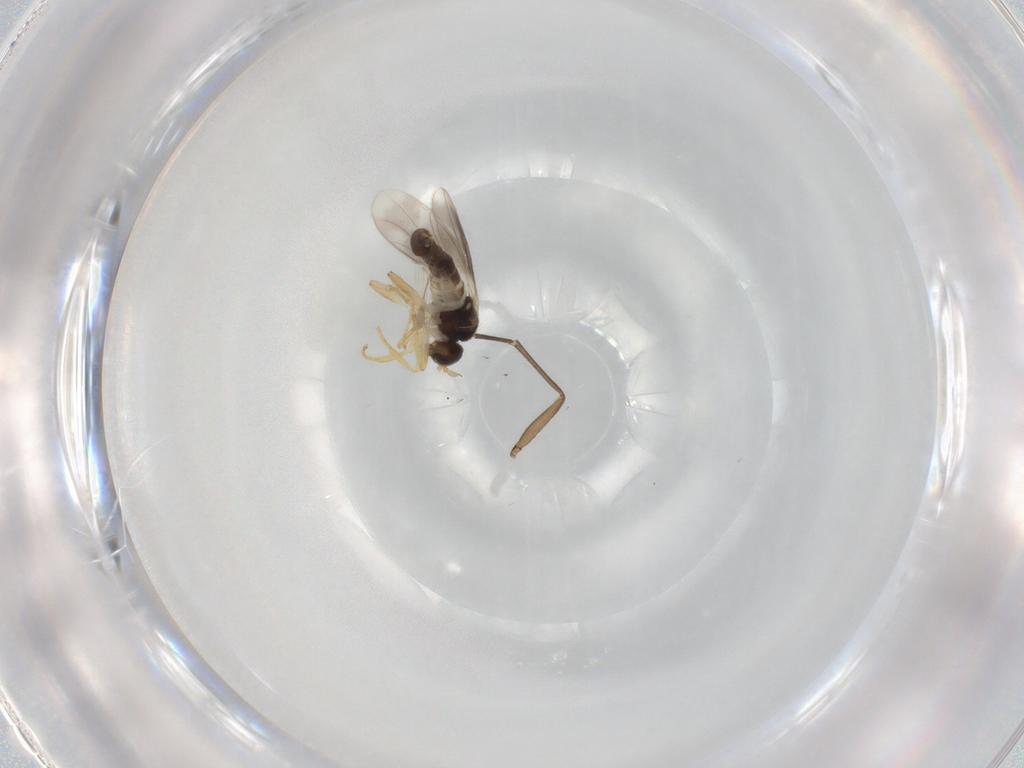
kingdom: Animalia
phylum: Arthropoda
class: Insecta
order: Diptera
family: Hybotidae
